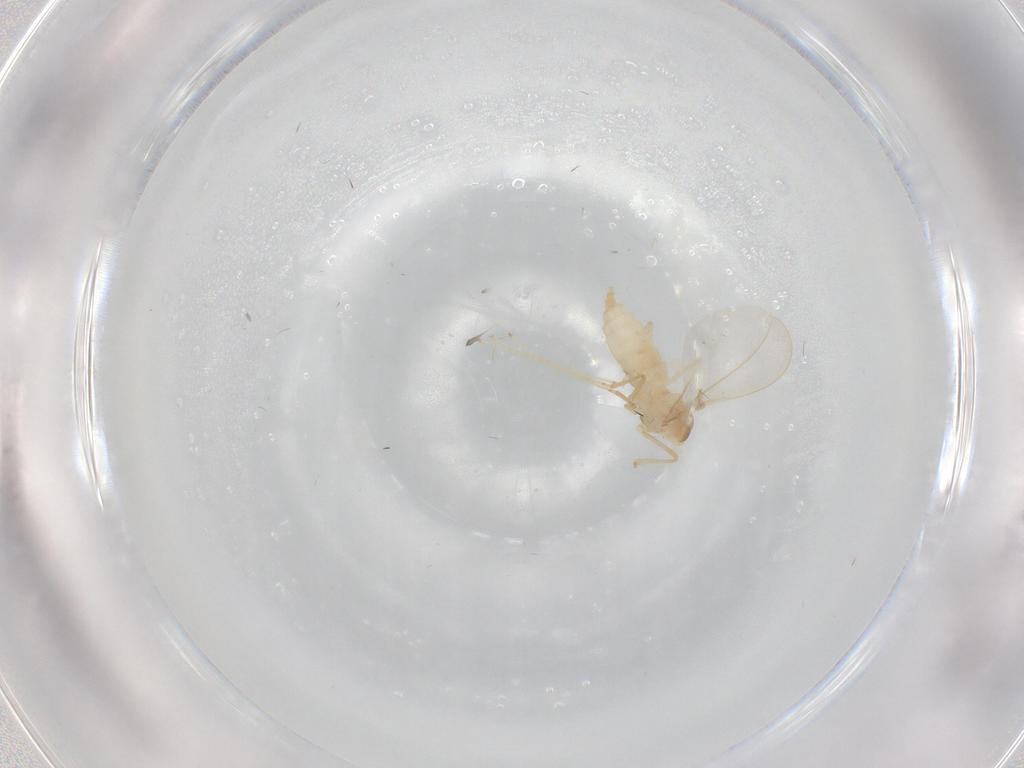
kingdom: Animalia
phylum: Arthropoda
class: Insecta
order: Diptera
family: Cecidomyiidae
